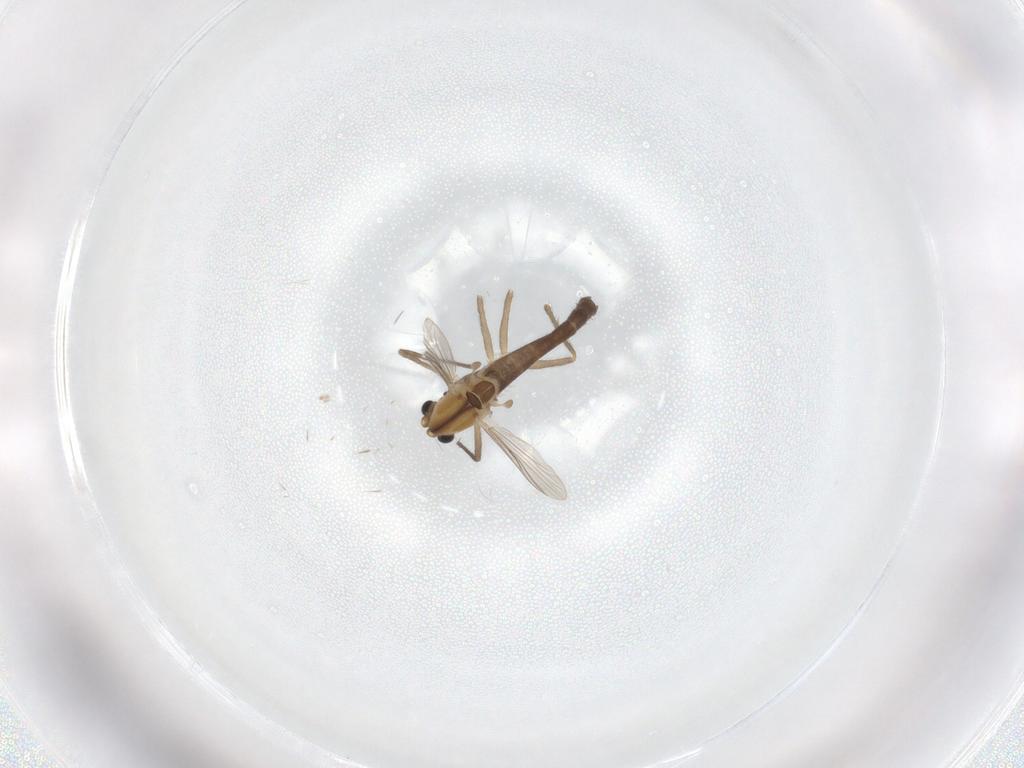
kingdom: Animalia
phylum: Arthropoda
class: Insecta
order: Diptera
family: Chironomidae
